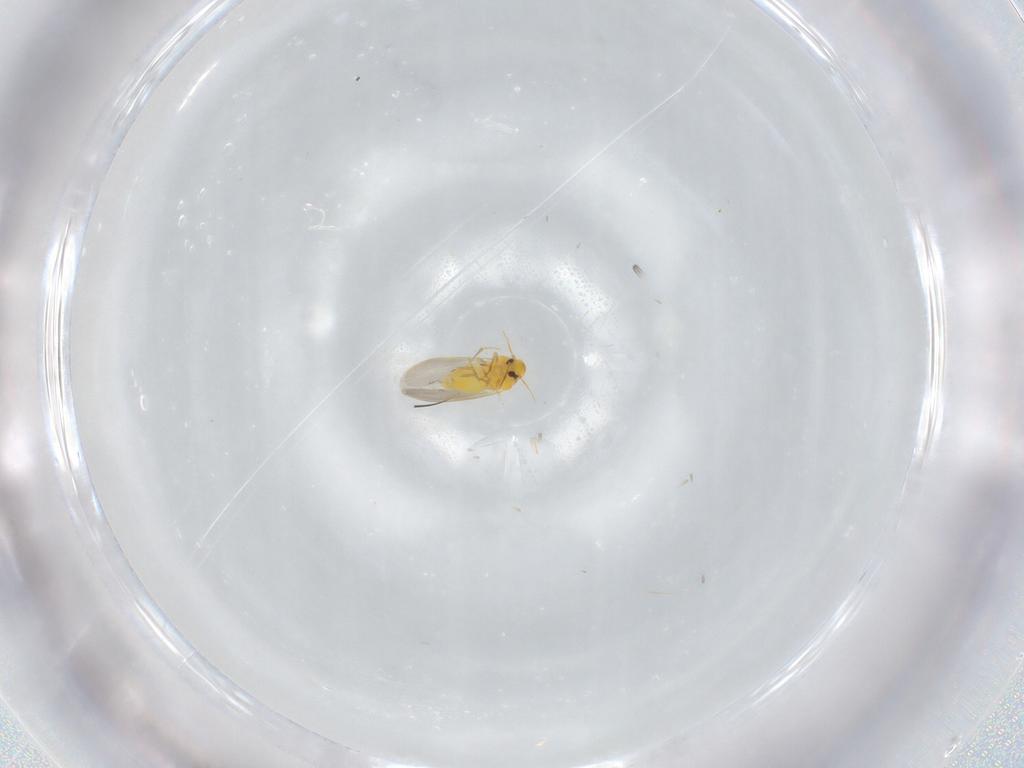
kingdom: Animalia
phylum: Arthropoda
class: Insecta
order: Hemiptera
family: Aleyrodidae
